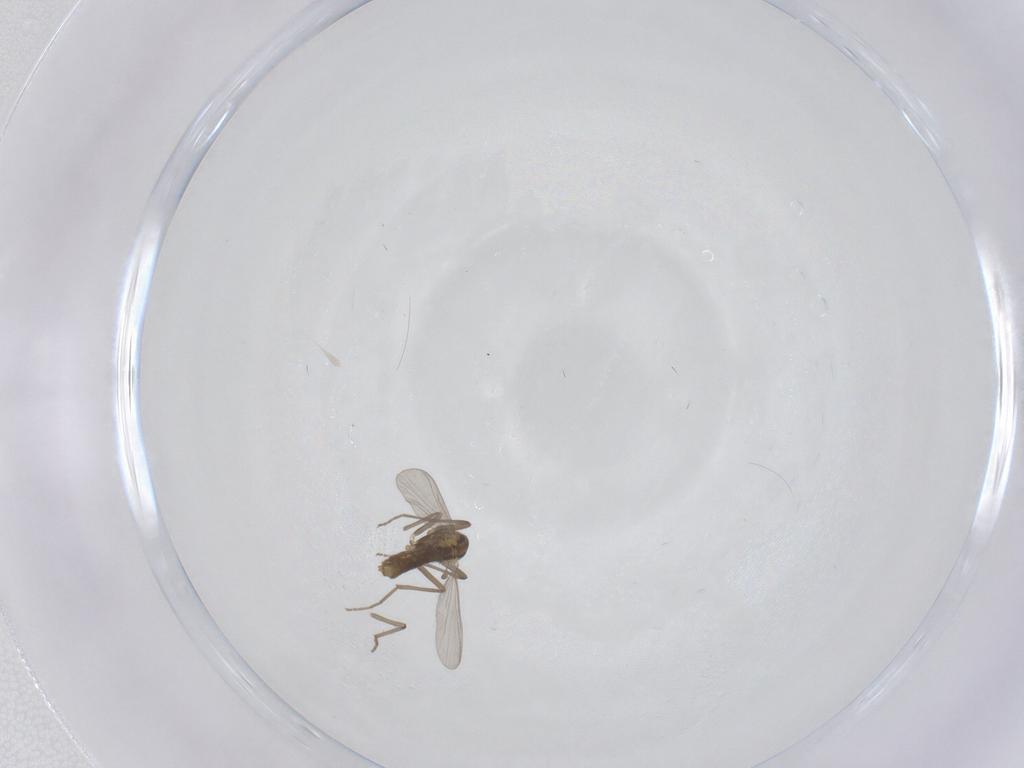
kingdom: Animalia
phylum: Arthropoda
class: Insecta
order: Diptera
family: Chironomidae
